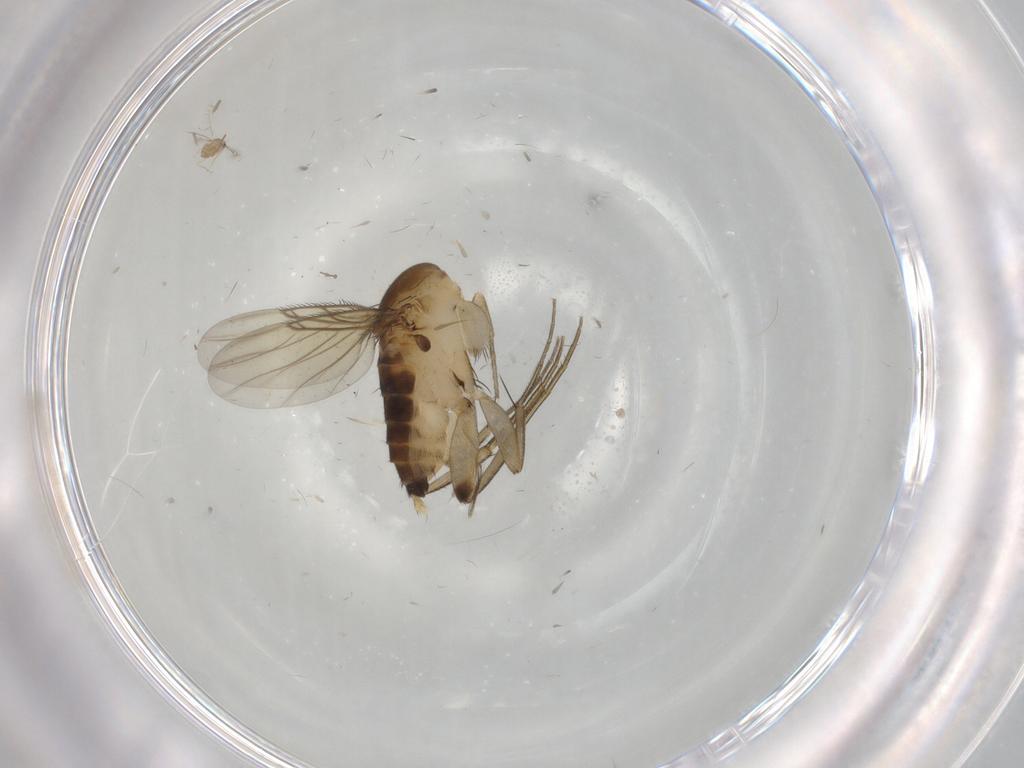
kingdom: Animalia
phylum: Arthropoda
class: Insecta
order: Diptera
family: Ceratopogonidae
